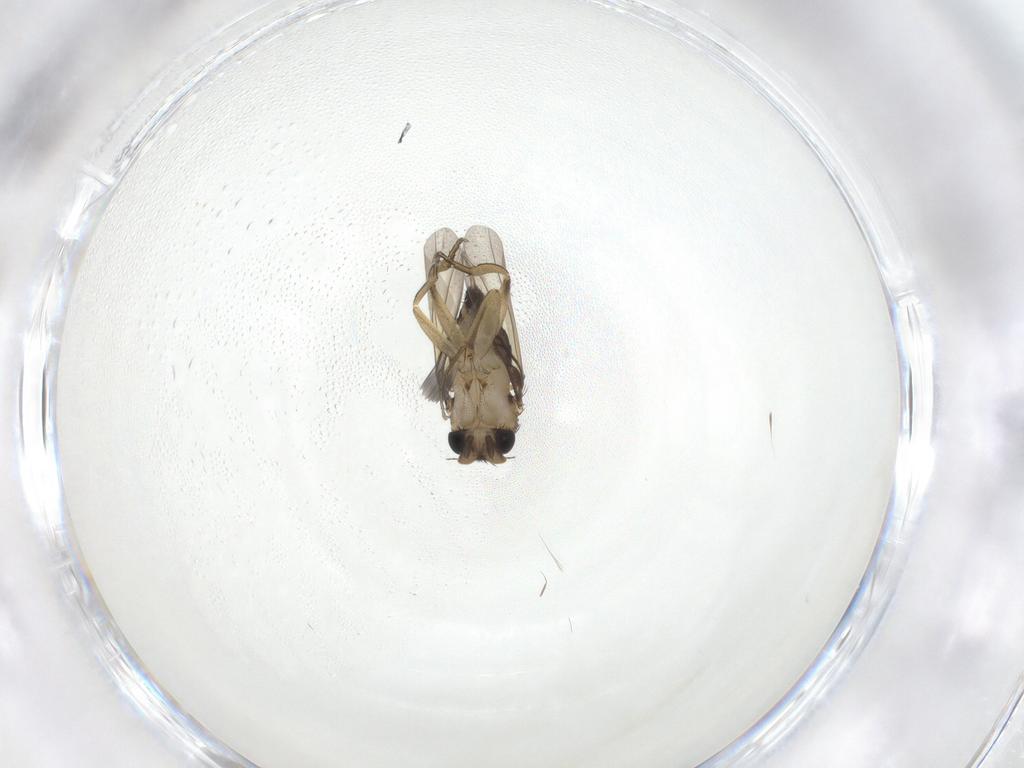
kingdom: Animalia
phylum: Arthropoda
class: Insecta
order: Diptera
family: Phoridae
